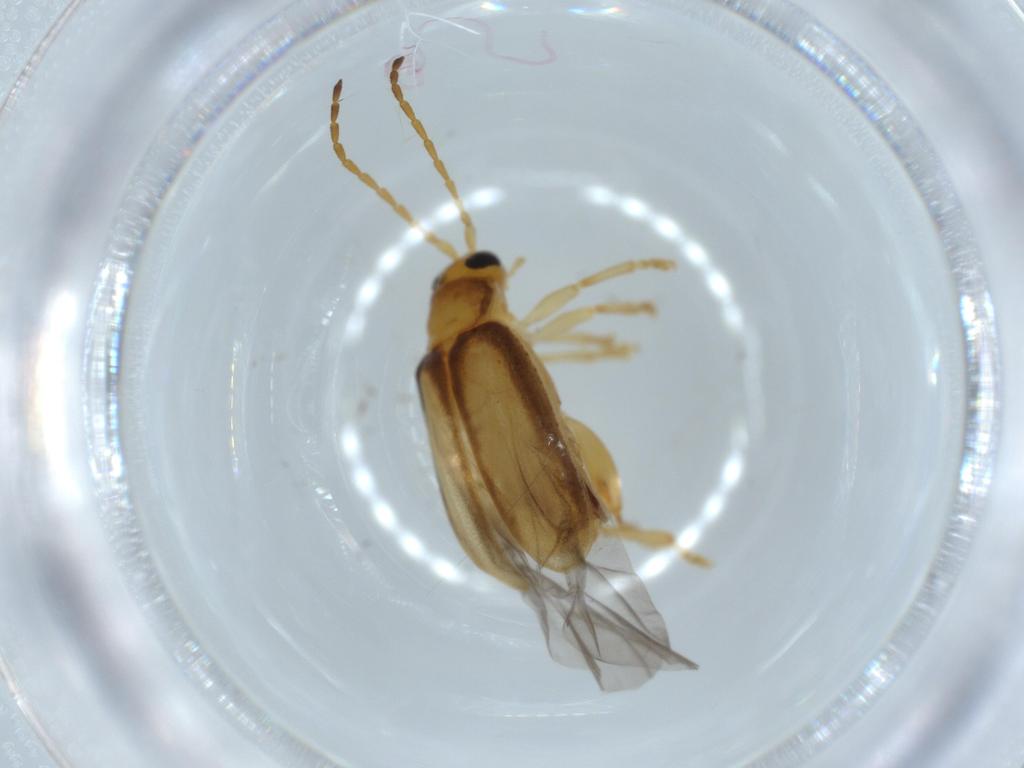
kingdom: Animalia
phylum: Arthropoda
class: Insecta
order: Coleoptera
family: Chrysomelidae
